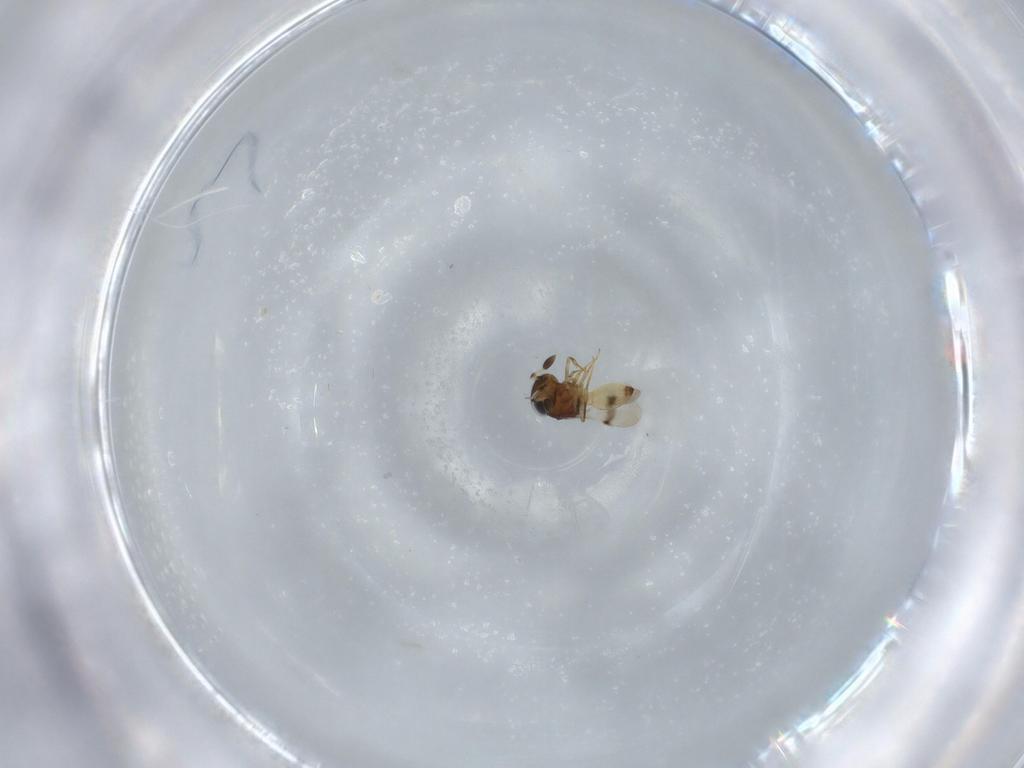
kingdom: Animalia
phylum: Arthropoda
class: Arachnida
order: Araneae
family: Pholcidae
